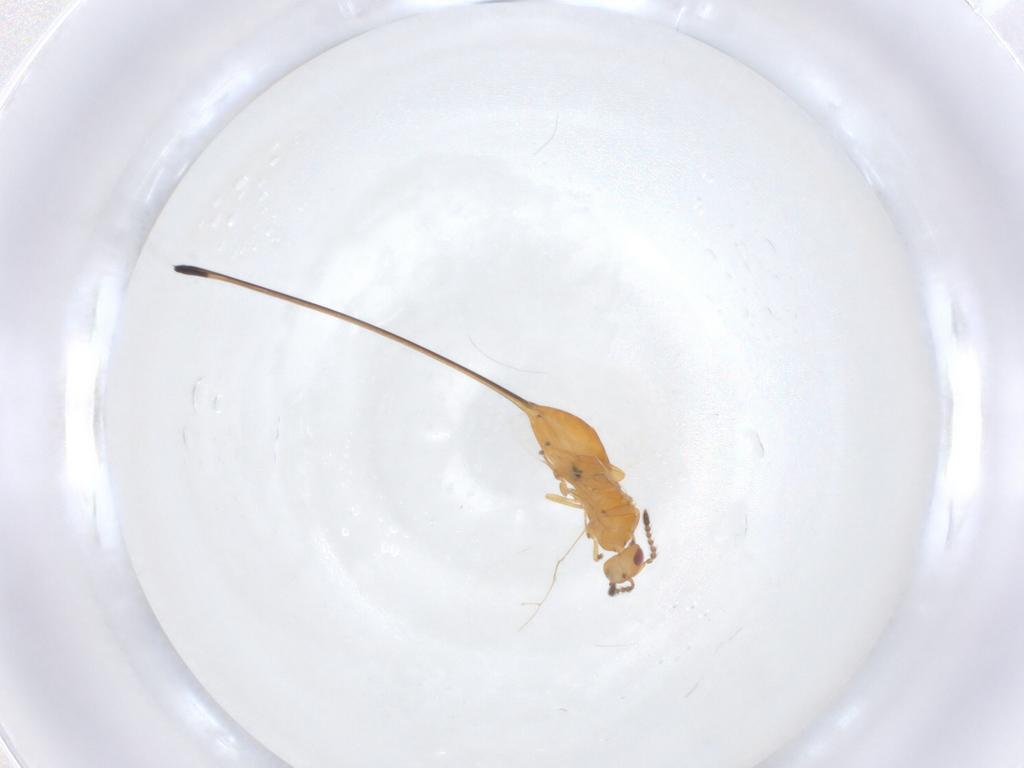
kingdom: Animalia
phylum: Arthropoda
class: Insecta
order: Hymenoptera
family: Pteromalidae
